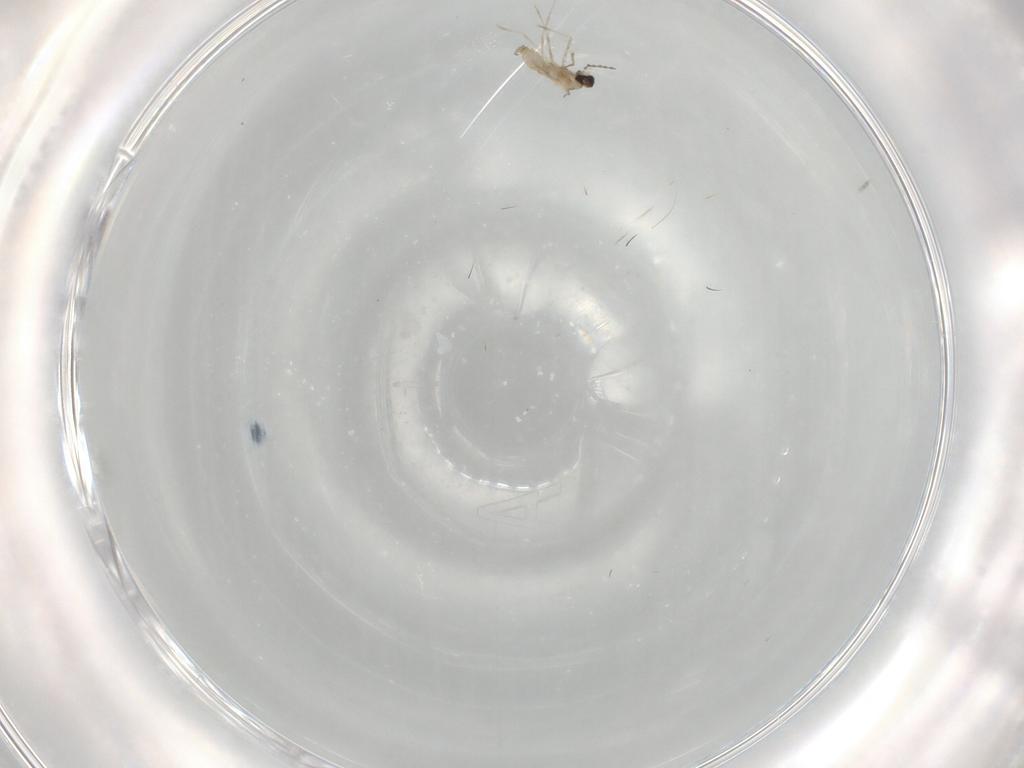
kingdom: Animalia
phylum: Arthropoda
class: Insecta
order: Diptera
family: Cecidomyiidae
